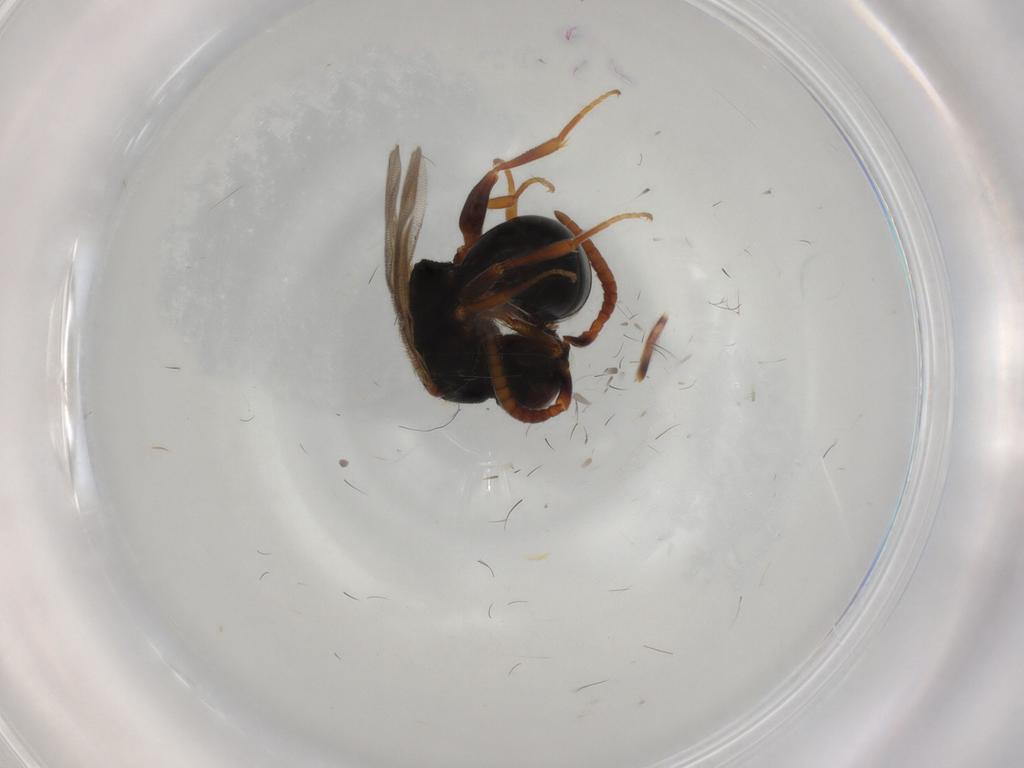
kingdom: Animalia
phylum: Arthropoda
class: Insecta
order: Hymenoptera
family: Bethylidae
